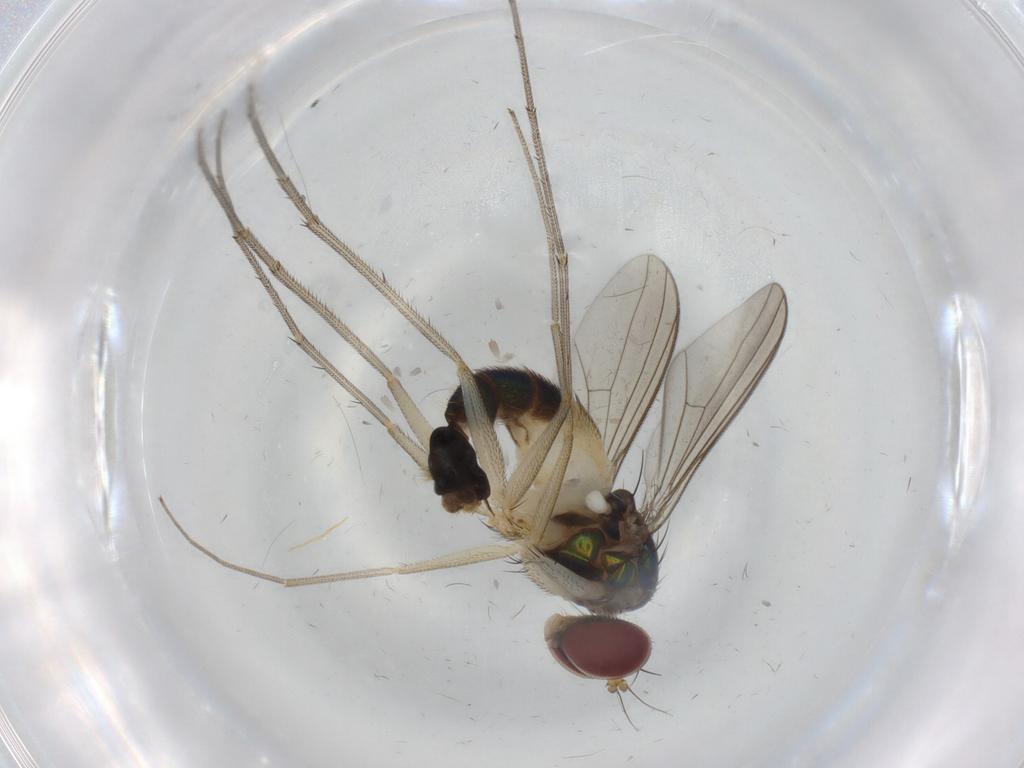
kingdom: Animalia
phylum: Arthropoda
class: Insecta
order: Diptera
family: Dolichopodidae
